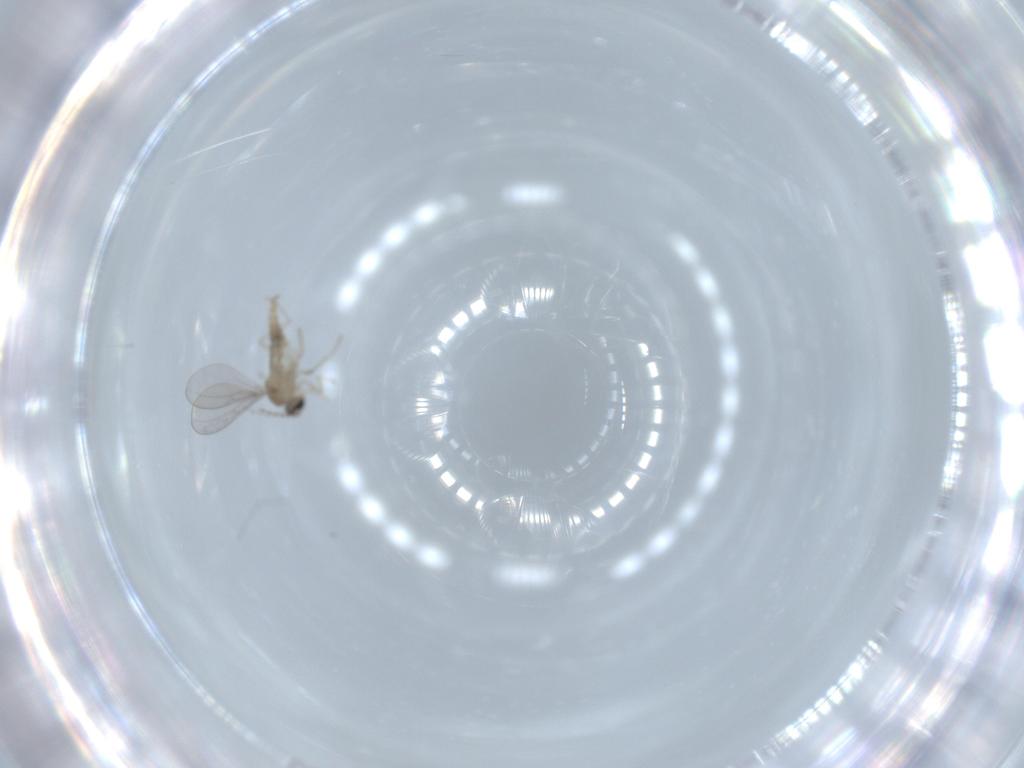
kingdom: Animalia
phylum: Arthropoda
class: Insecta
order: Diptera
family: Cecidomyiidae
